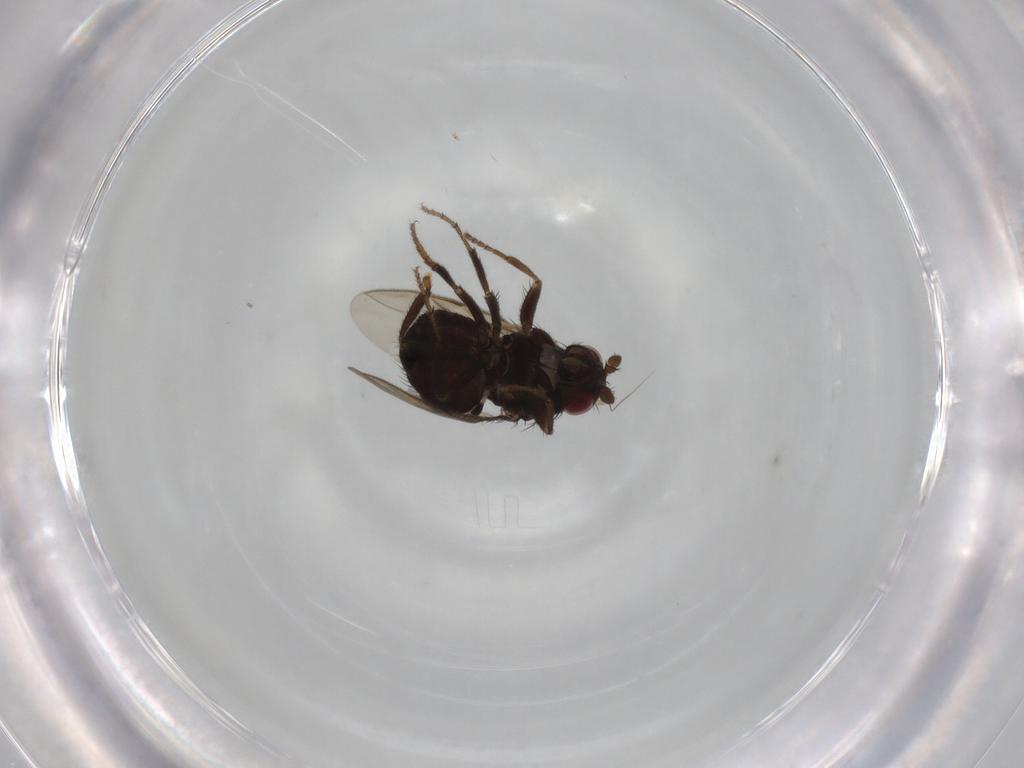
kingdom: Animalia
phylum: Arthropoda
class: Insecta
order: Diptera
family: Sphaeroceridae
